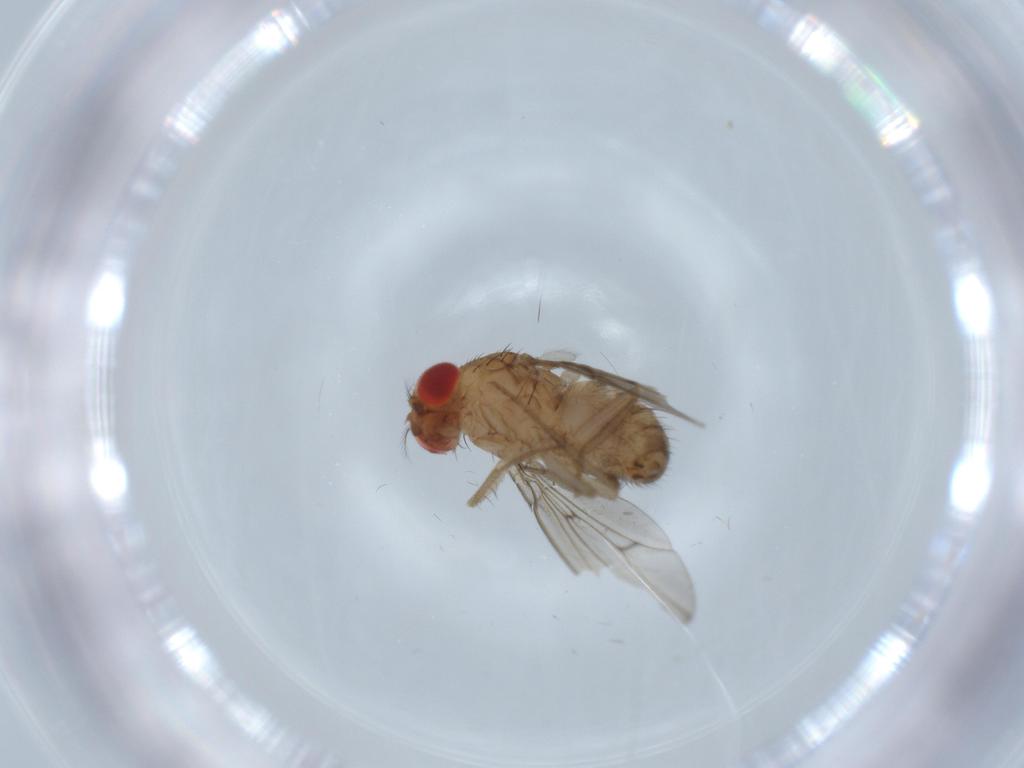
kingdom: Animalia
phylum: Arthropoda
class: Insecta
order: Diptera
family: Drosophilidae
